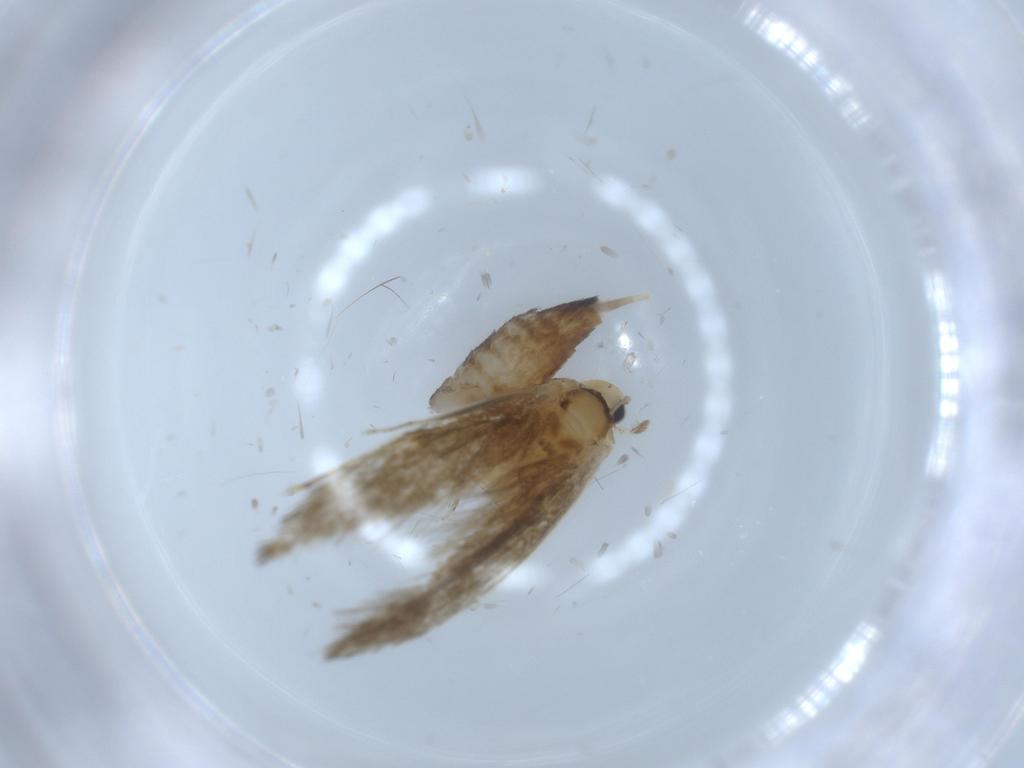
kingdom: Animalia
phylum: Arthropoda
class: Insecta
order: Lepidoptera
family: Tineidae
